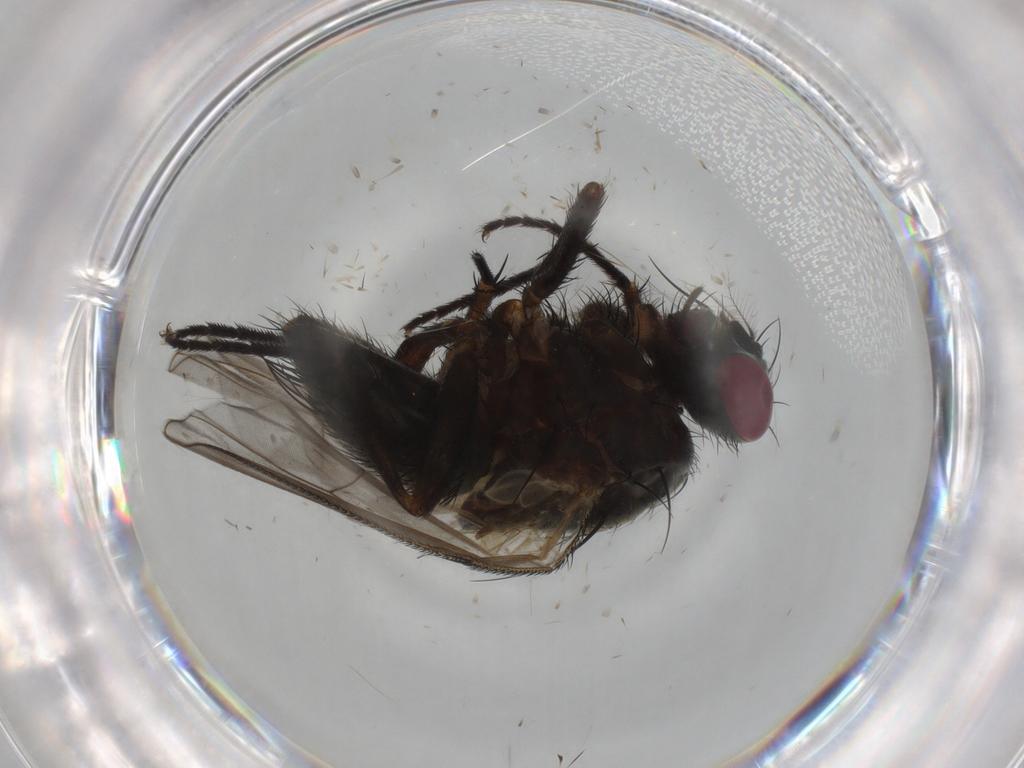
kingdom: Animalia
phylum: Arthropoda
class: Insecta
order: Diptera
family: Muscidae
